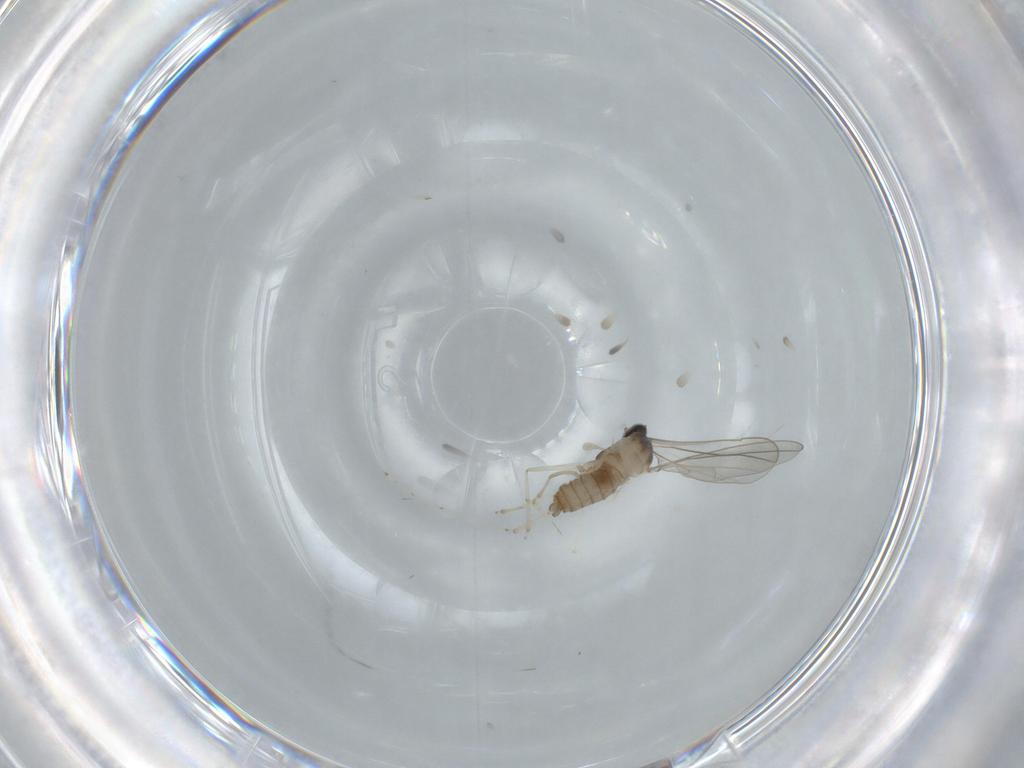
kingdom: Animalia
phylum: Arthropoda
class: Insecta
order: Diptera
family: Cecidomyiidae
